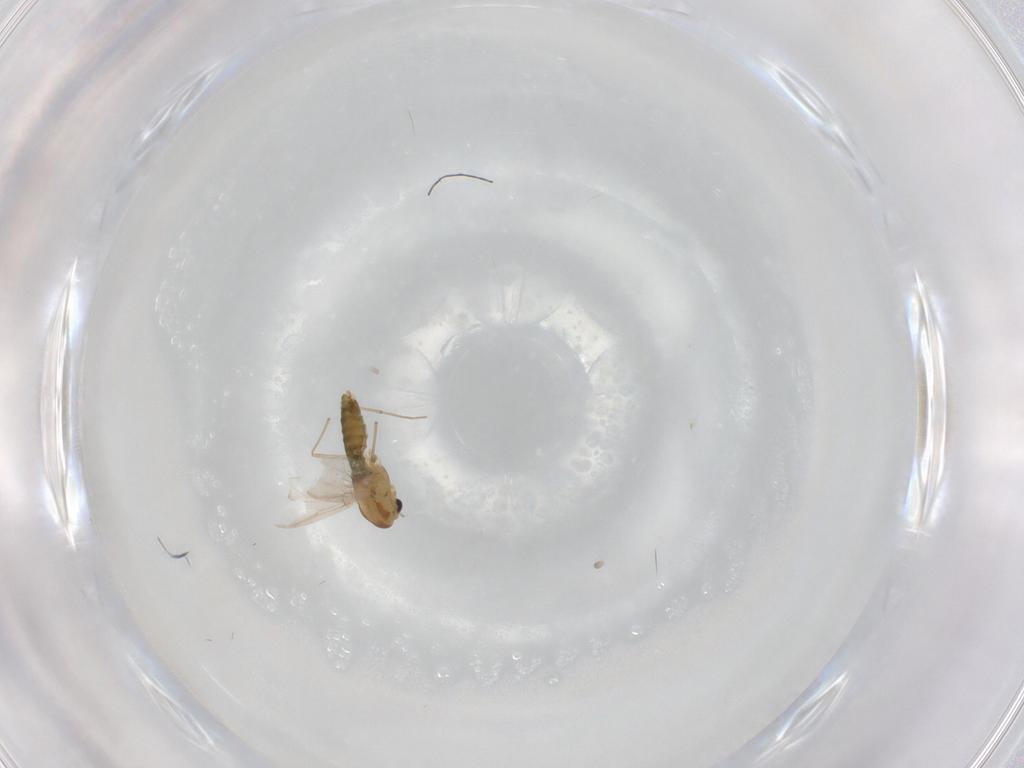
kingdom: Animalia
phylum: Arthropoda
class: Insecta
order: Diptera
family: Chironomidae
